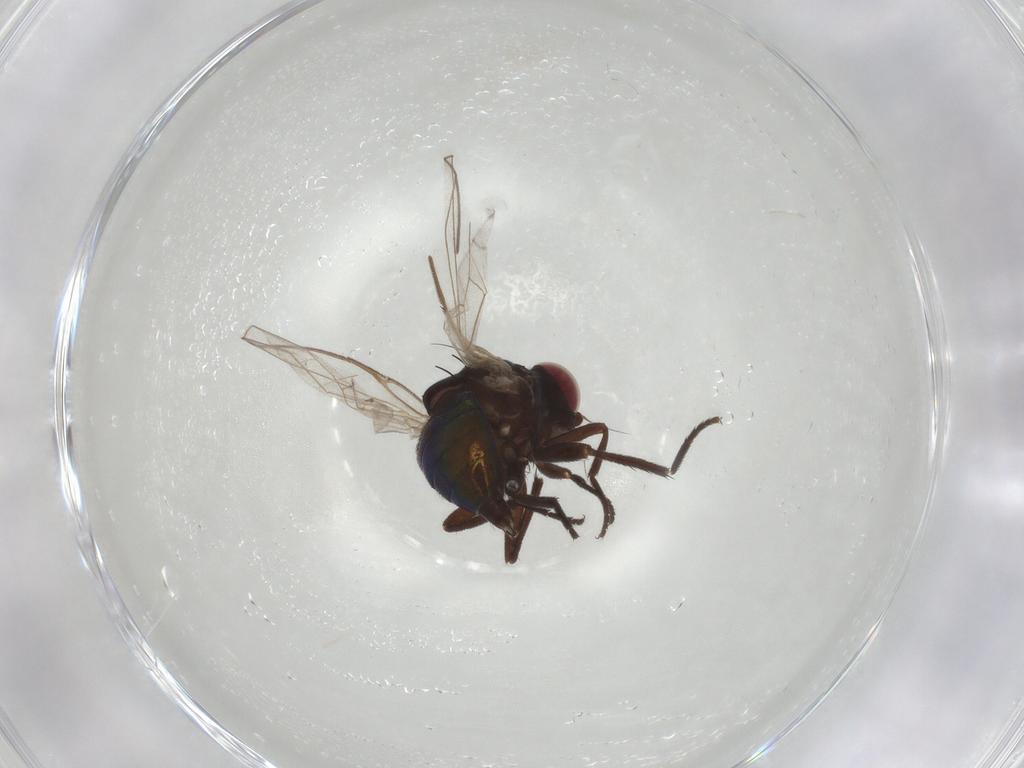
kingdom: Animalia
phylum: Arthropoda
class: Insecta
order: Diptera
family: Agromyzidae
